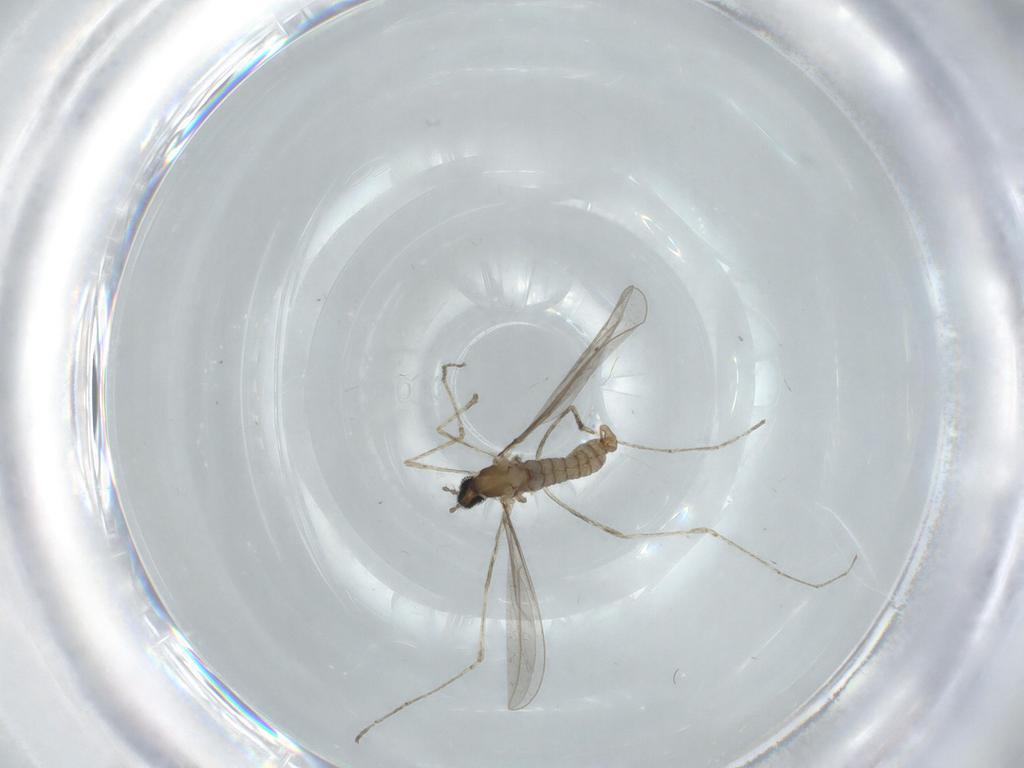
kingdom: Animalia
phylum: Arthropoda
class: Insecta
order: Diptera
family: Cecidomyiidae
